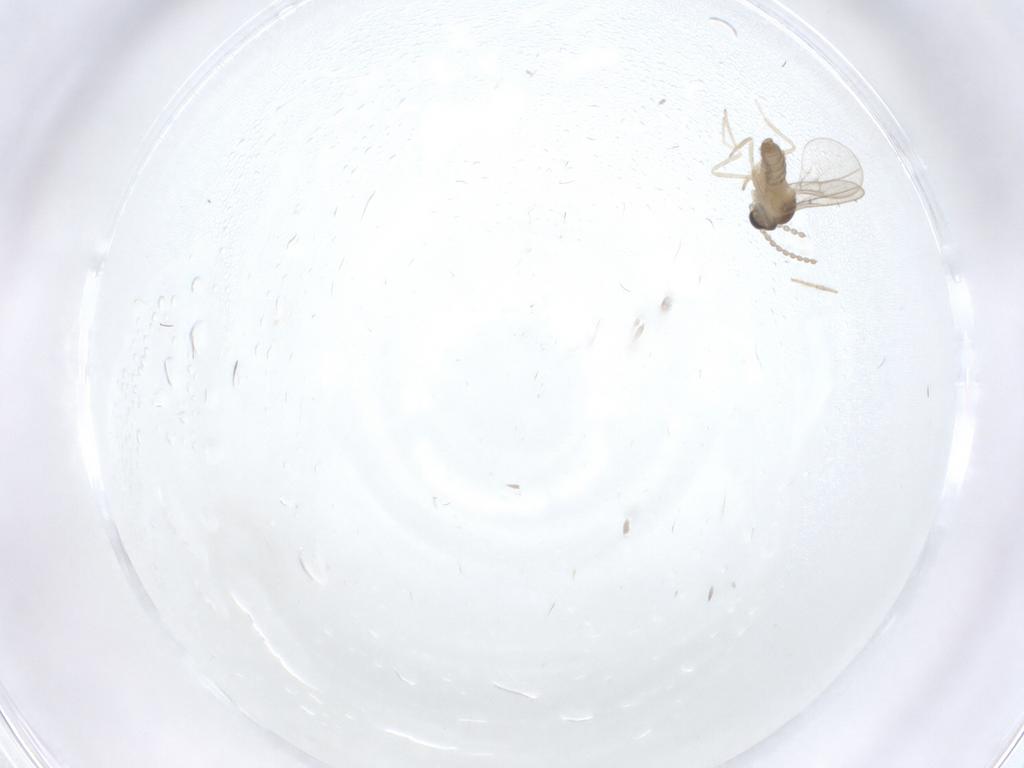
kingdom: Animalia
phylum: Arthropoda
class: Insecta
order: Diptera
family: Cecidomyiidae
